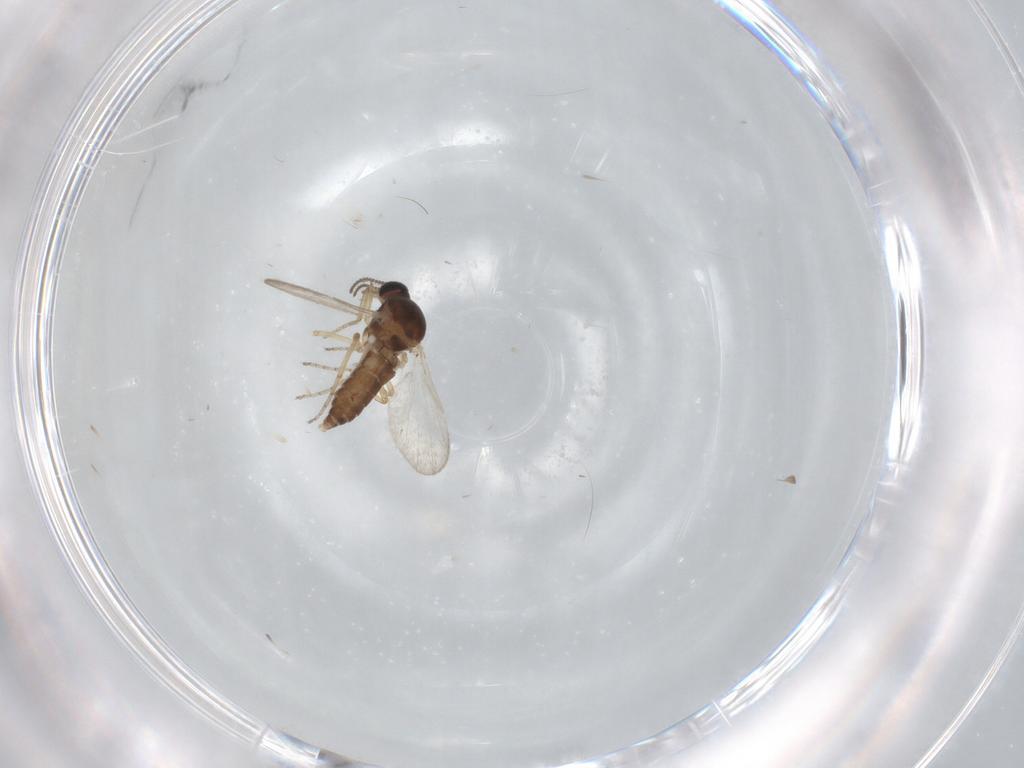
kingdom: Animalia
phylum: Arthropoda
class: Insecta
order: Diptera
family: Ceratopogonidae
